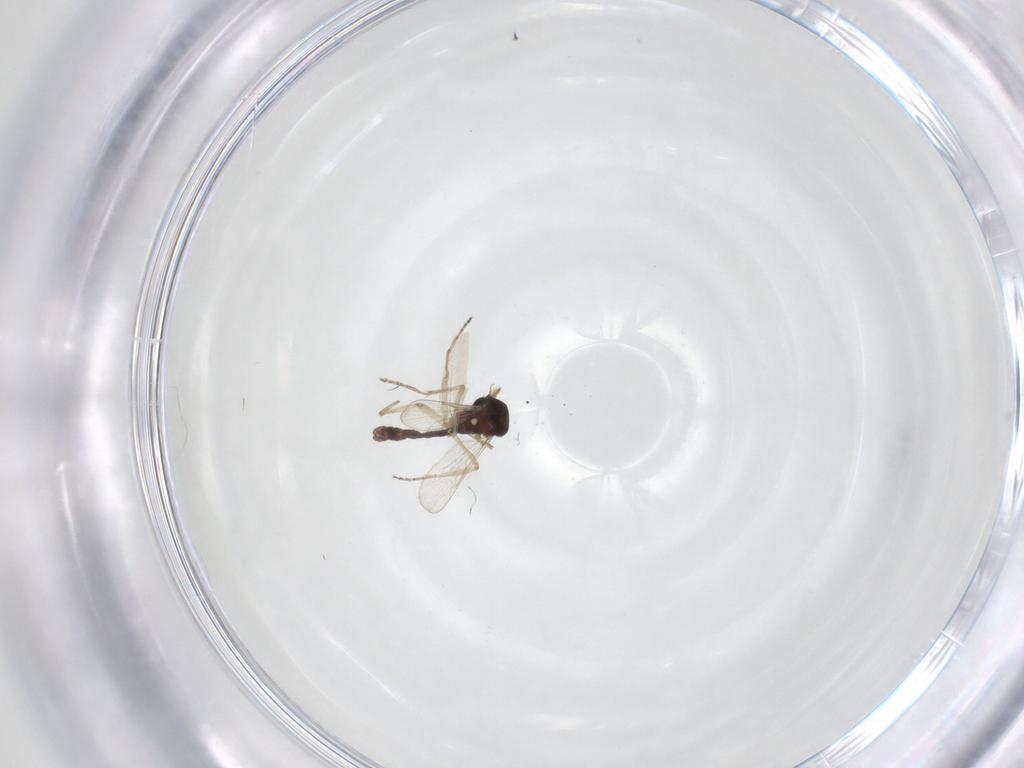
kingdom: Animalia
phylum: Arthropoda
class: Insecta
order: Diptera
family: Ceratopogonidae
